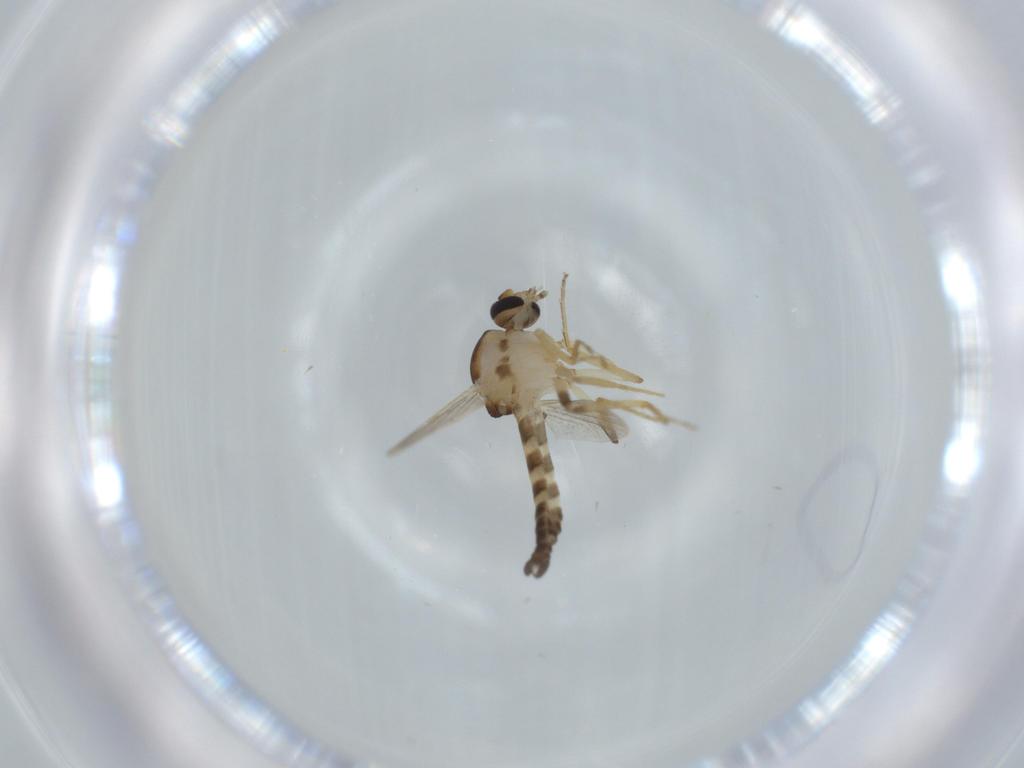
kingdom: Animalia
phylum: Arthropoda
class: Insecta
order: Diptera
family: Ceratopogonidae
